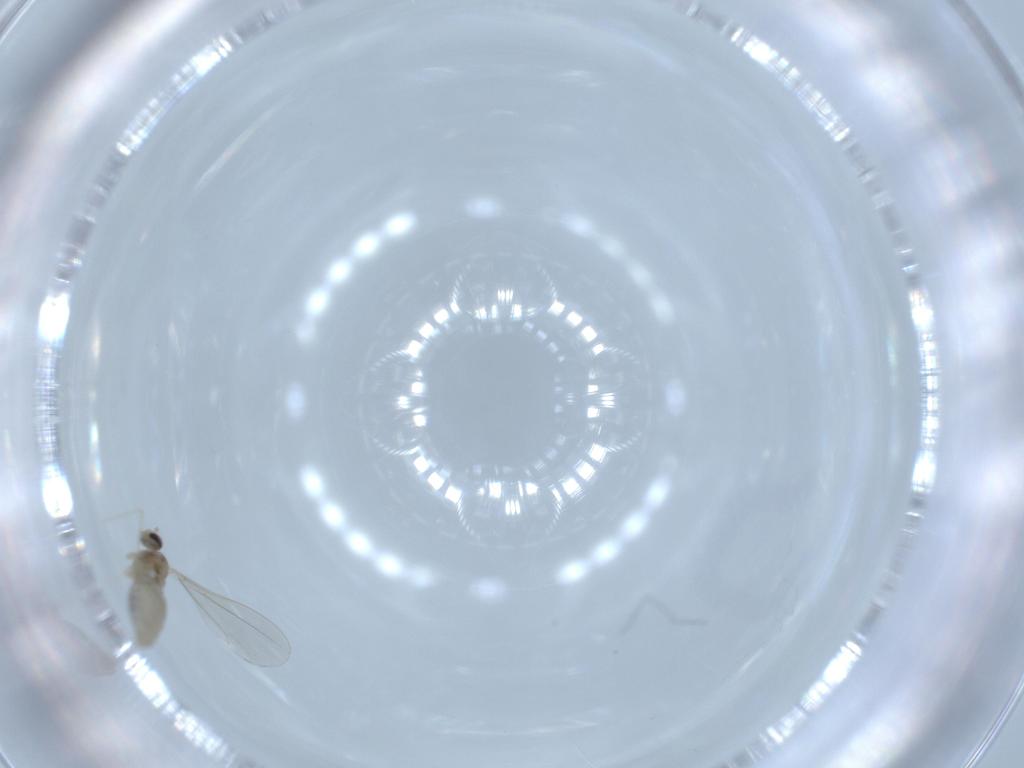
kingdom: Animalia
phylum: Arthropoda
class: Insecta
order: Diptera
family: Cecidomyiidae
